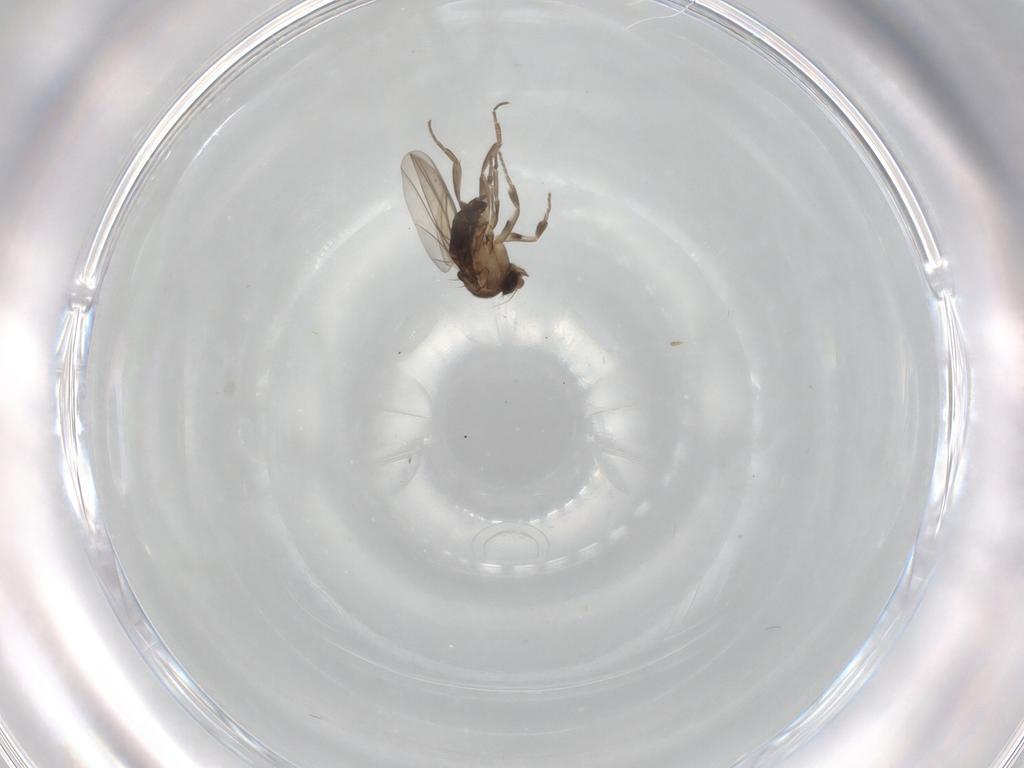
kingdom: Animalia
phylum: Arthropoda
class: Insecta
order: Diptera
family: Phoridae
